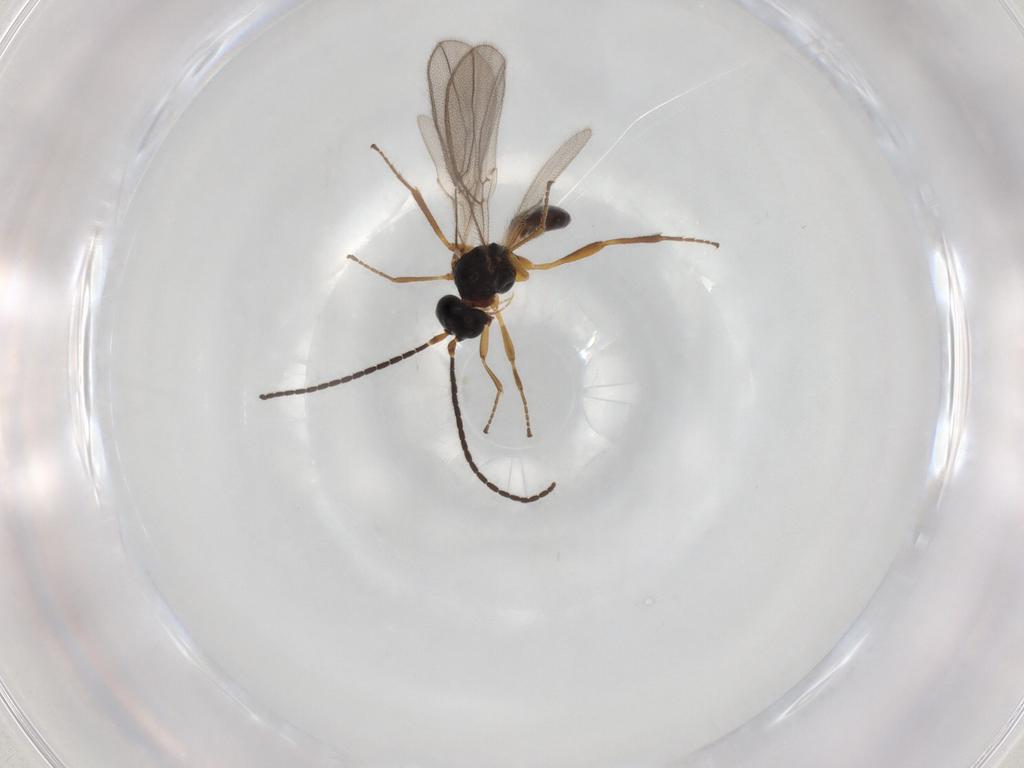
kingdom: Animalia
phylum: Arthropoda
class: Insecta
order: Hymenoptera
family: Braconidae
